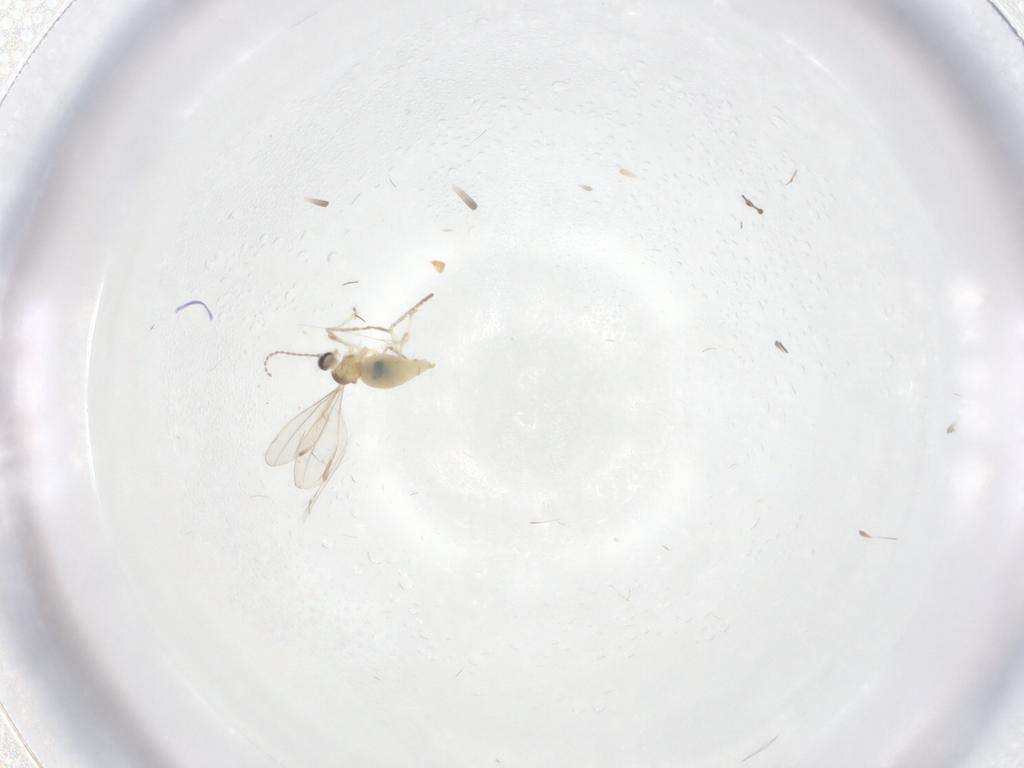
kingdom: Animalia
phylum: Arthropoda
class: Insecta
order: Diptera
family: Cecidomyiidae
